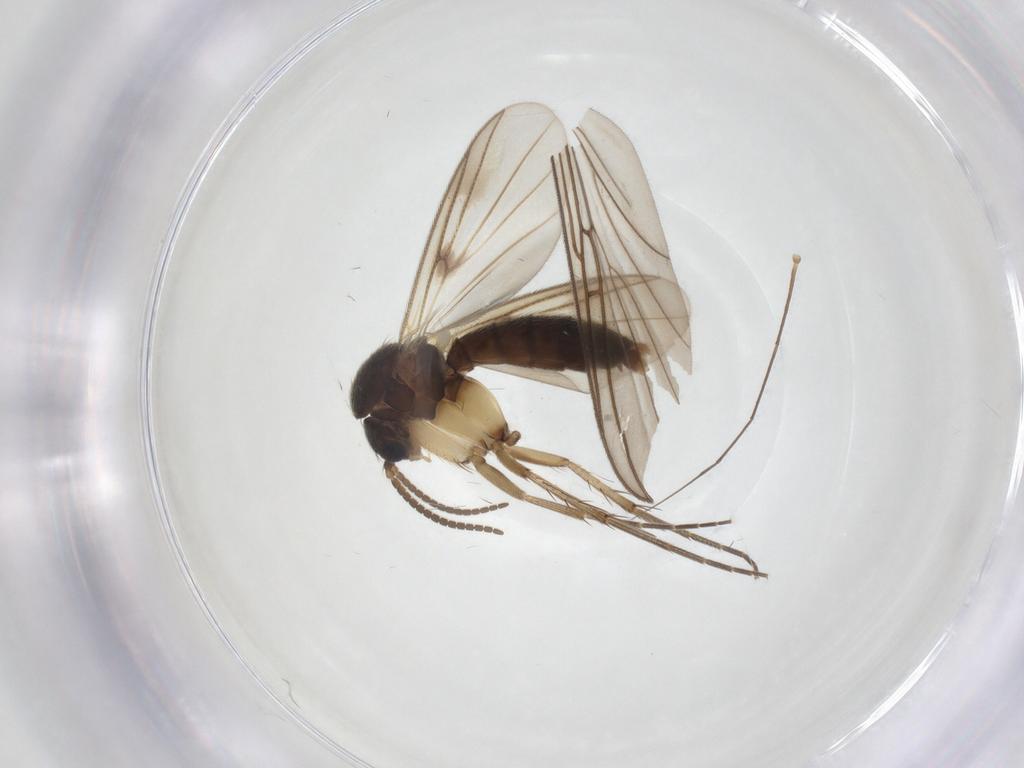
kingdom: Animalia
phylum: Arthropoda
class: Insecta
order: Diptera
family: Mycetophilidae
